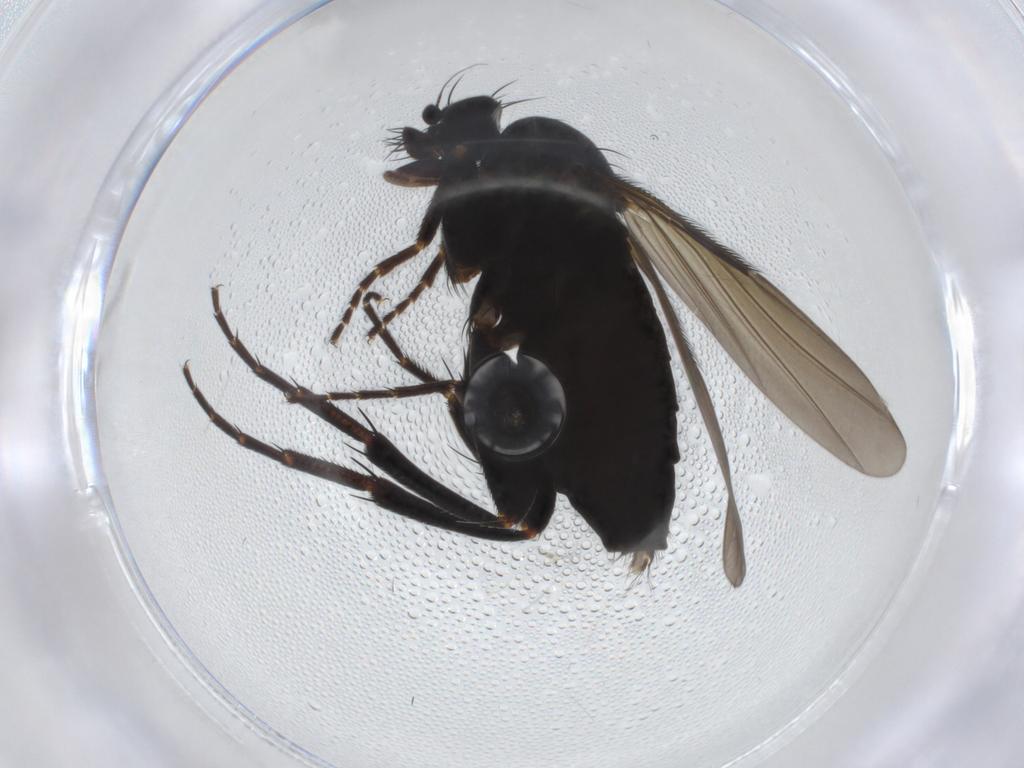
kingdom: Animalia
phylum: Arthropoda
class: Insecta
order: Diptera
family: Phoridae
